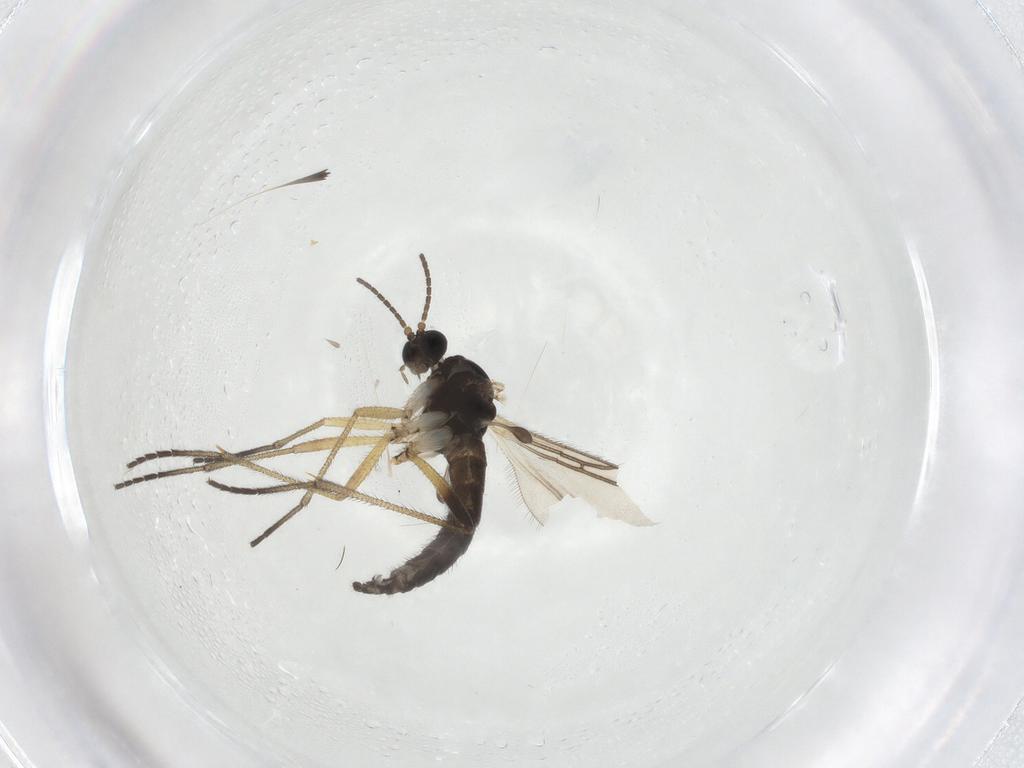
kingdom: Animalia
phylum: Arthropoda
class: Insecta
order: Diptera
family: Sciaridae
